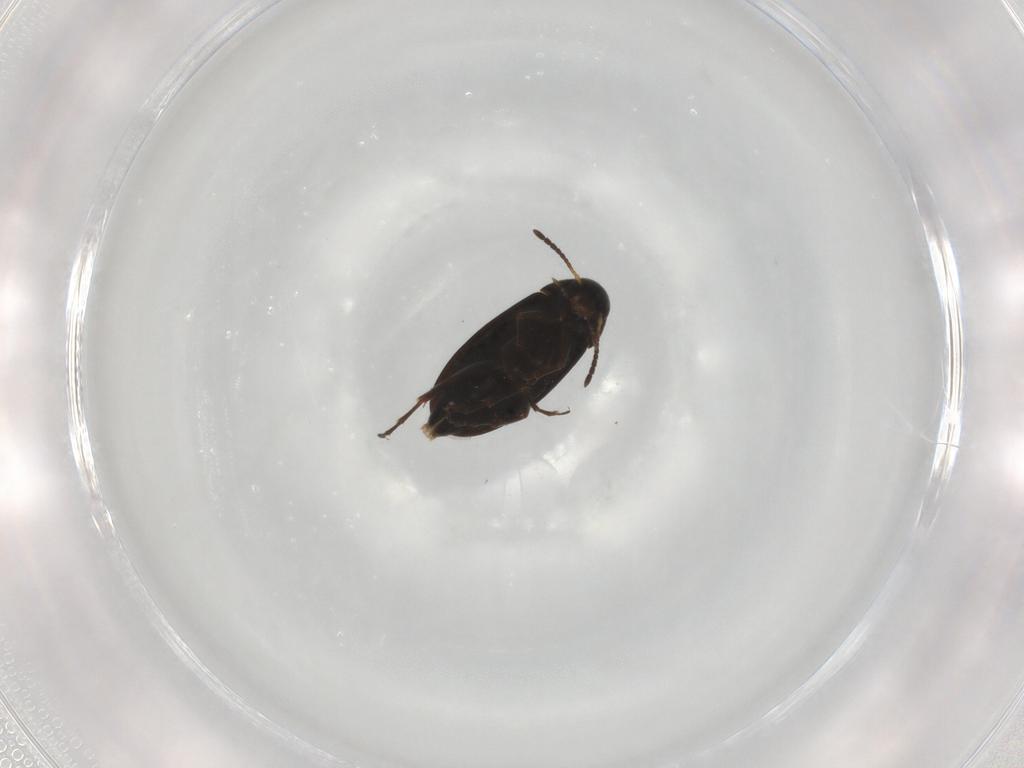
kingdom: Animalia
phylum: Arthropoda
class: Insecta
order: Coleoptera
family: Scraptiidae
